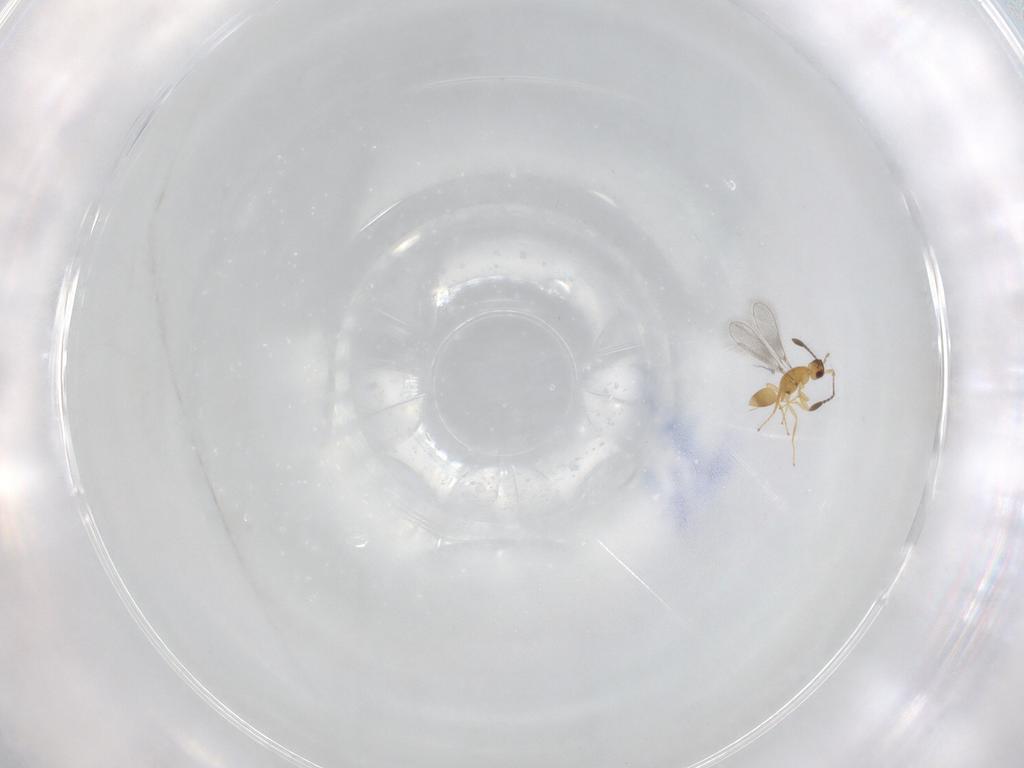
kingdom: Animalia
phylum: Arthropoda
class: Insecta
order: Hymenoptera
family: Mymaridae
